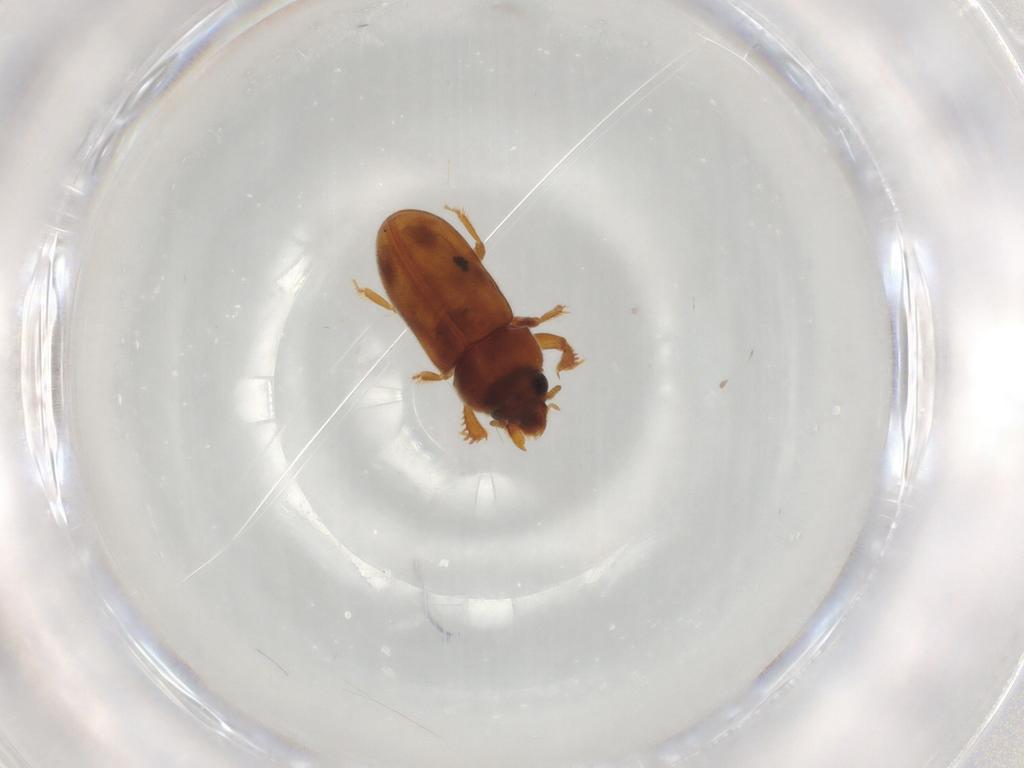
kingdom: Animalia
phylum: Arthropoda
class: Insecta
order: Coleoptera
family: Heteroceridae
